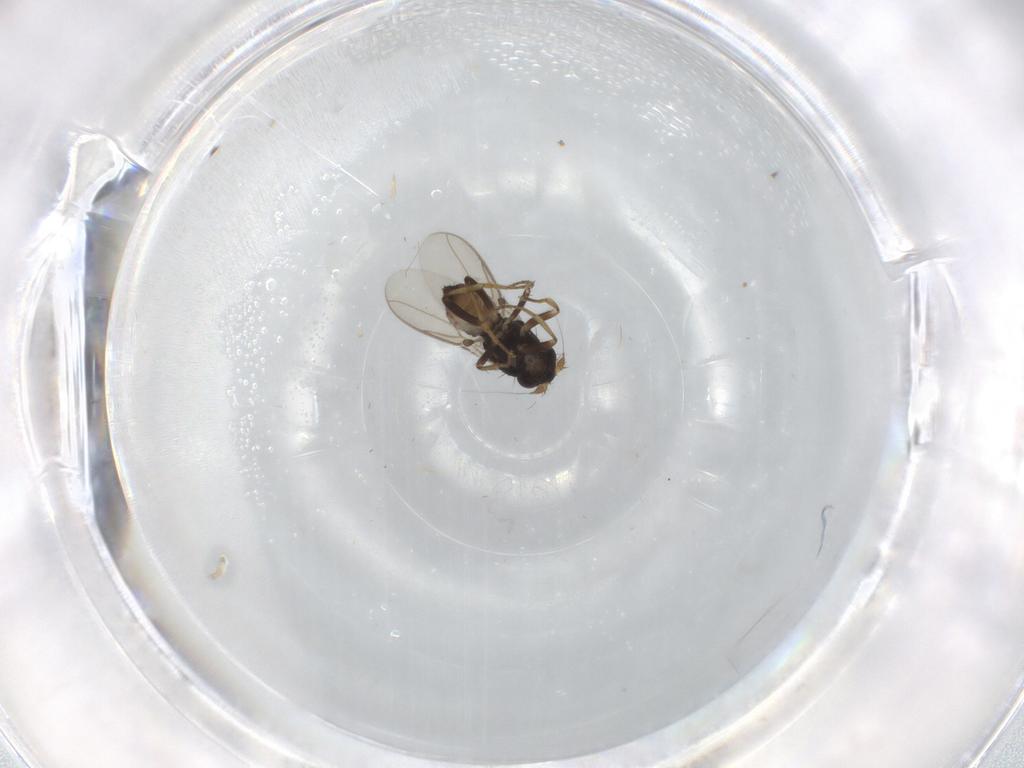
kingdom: Animalia
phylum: Arthropoda
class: Insecta
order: Diptera
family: Sphaeroceridae
